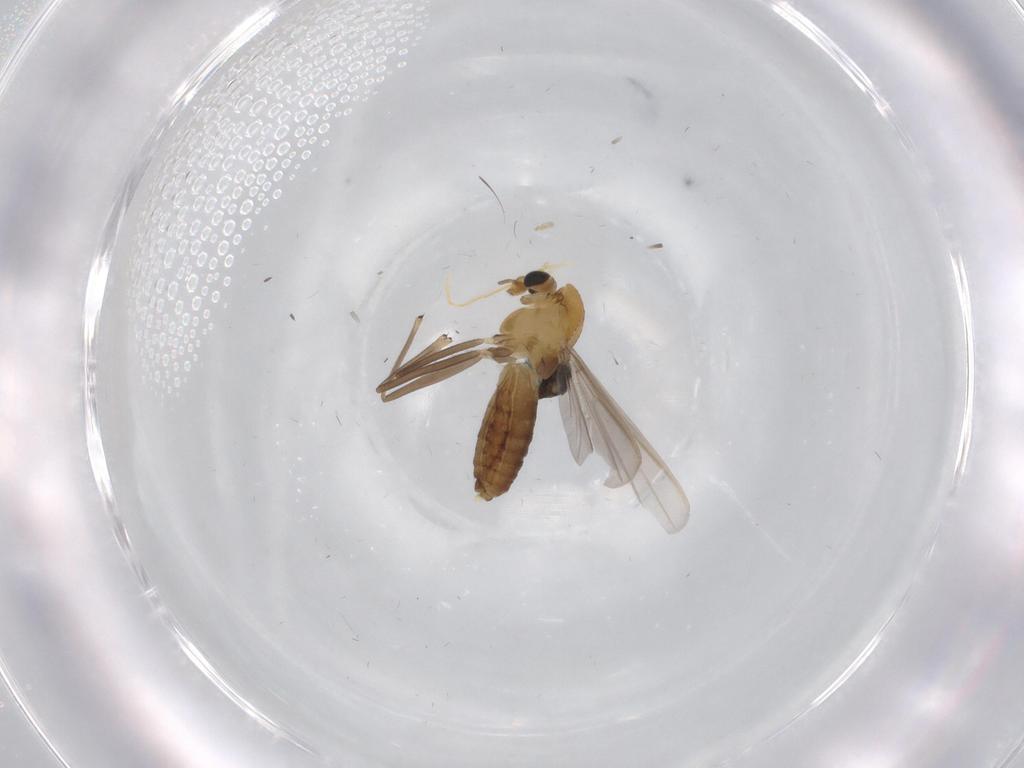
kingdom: Animalia
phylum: Arthropoda
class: Insecta
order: Diptera
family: Chironomidae
